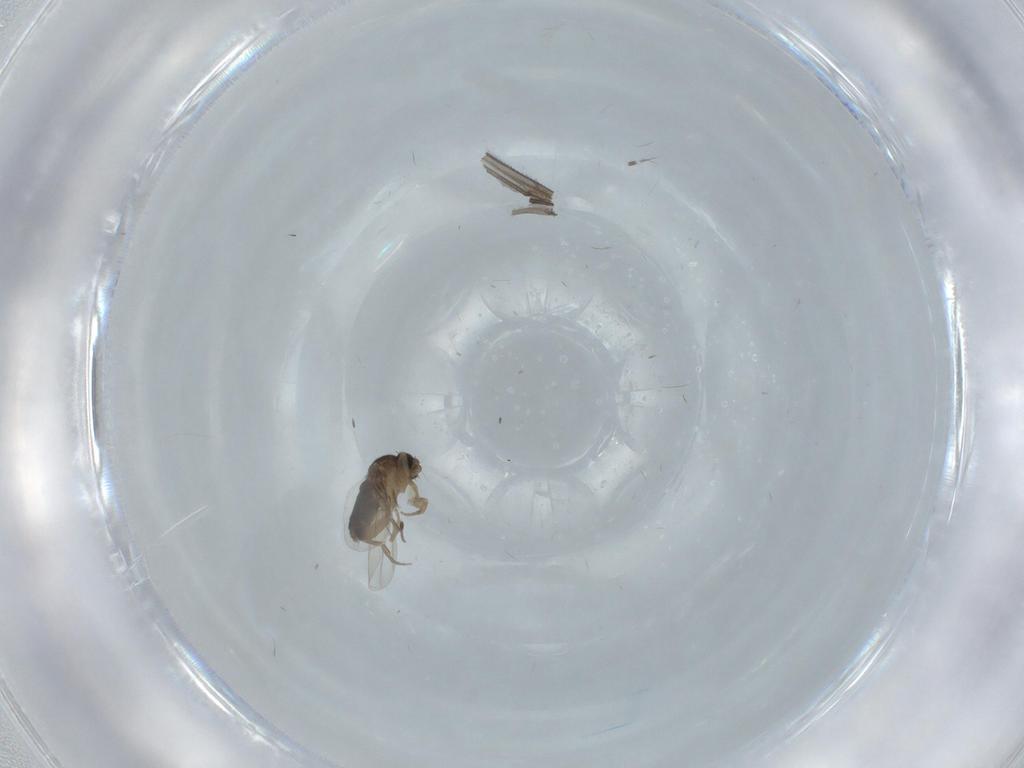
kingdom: Animalia
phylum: Arthropoda
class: Insecta
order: Diptera
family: Phoridae
